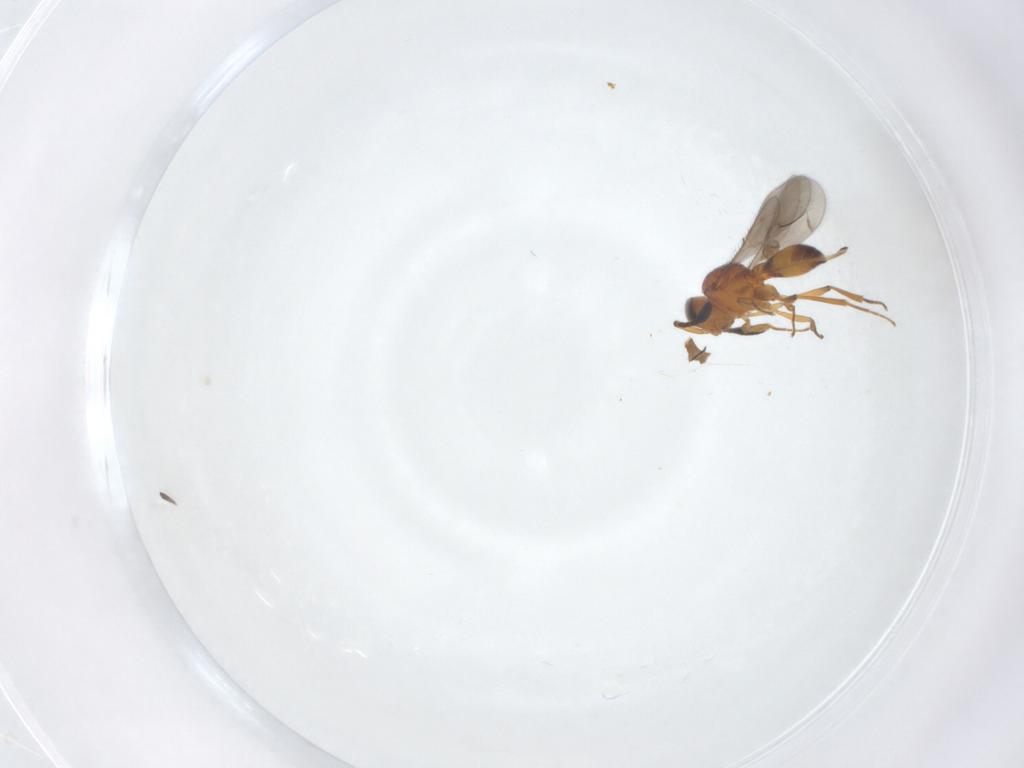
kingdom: Animalia
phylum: Arthropoda
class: Insecta
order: Hymenoptera
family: Scelionidae
